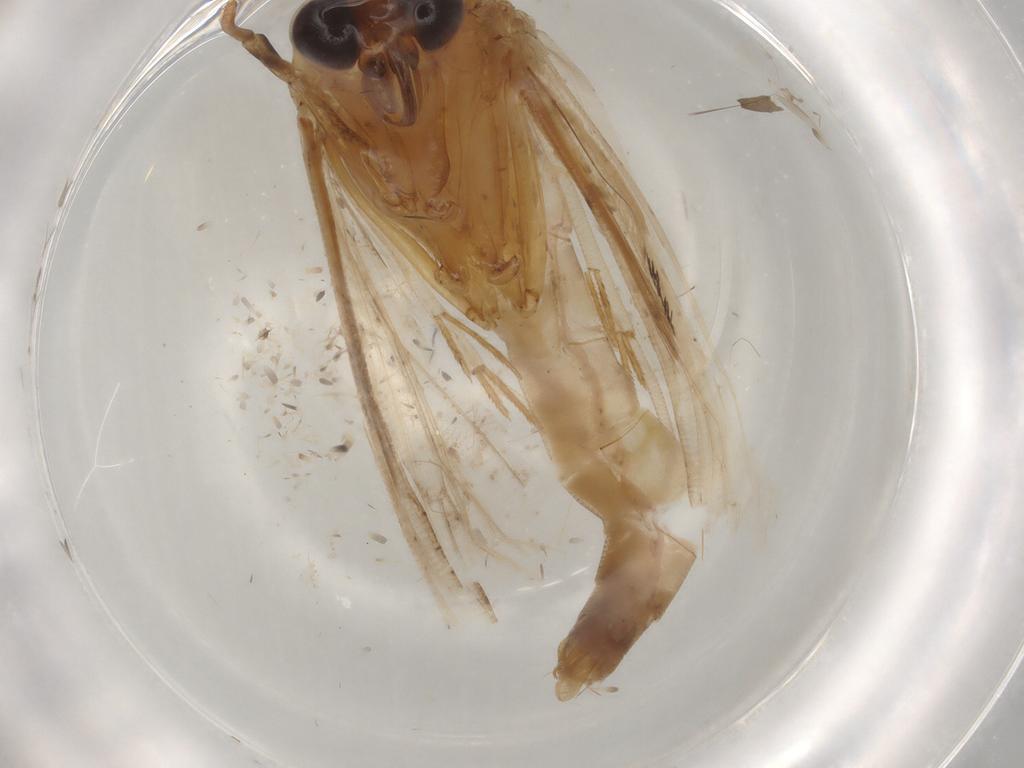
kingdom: Animalia
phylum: Arthropoda
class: Insecta
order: Lepidoptera
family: Erebidae
